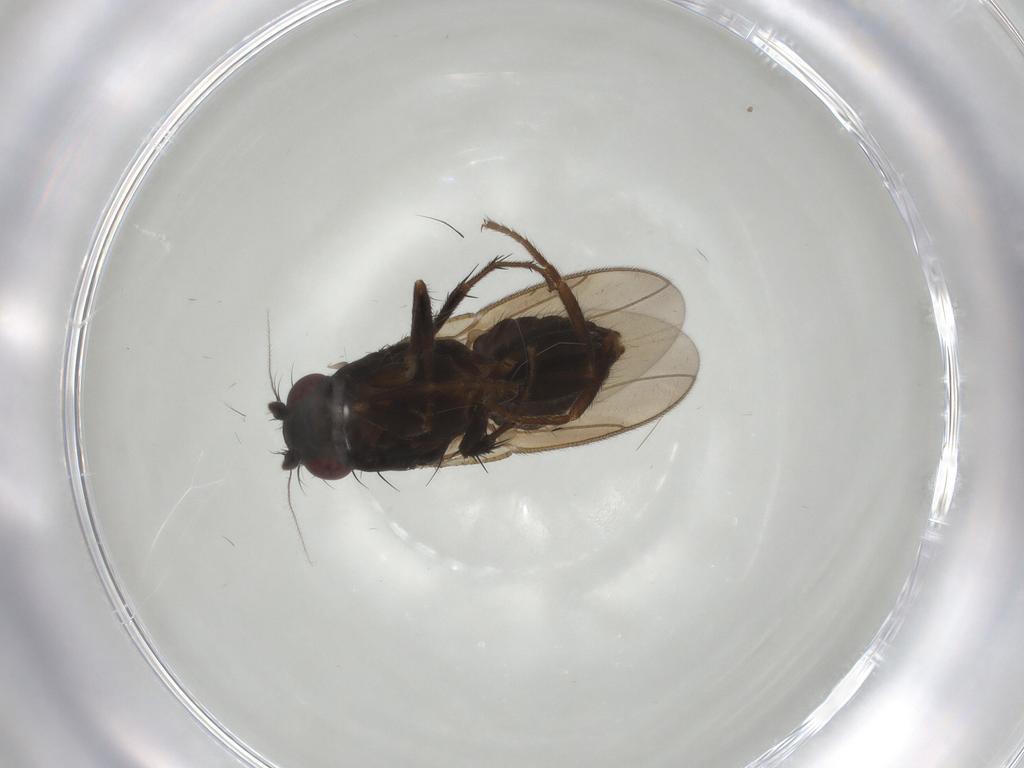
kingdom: Animalia
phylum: Arthropoda
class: Insecta
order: Diptera
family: Sphaeroceridae
